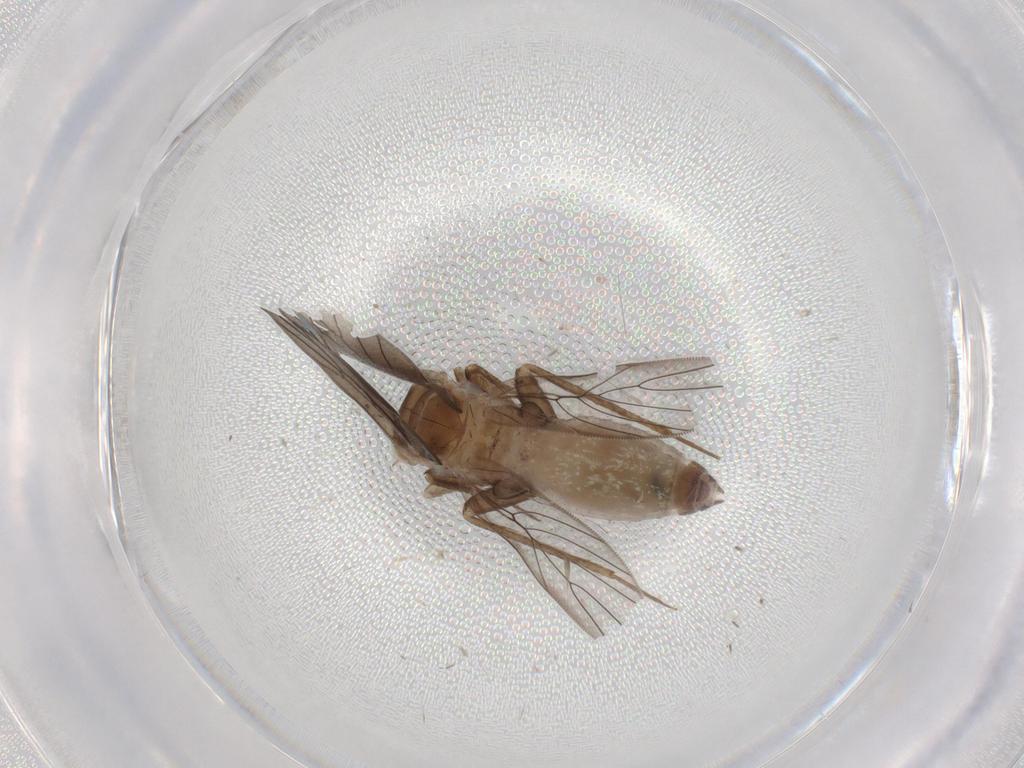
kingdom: Animalia
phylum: Arthropoda
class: Insecta
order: Psocodea
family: Lepidopsocidae
